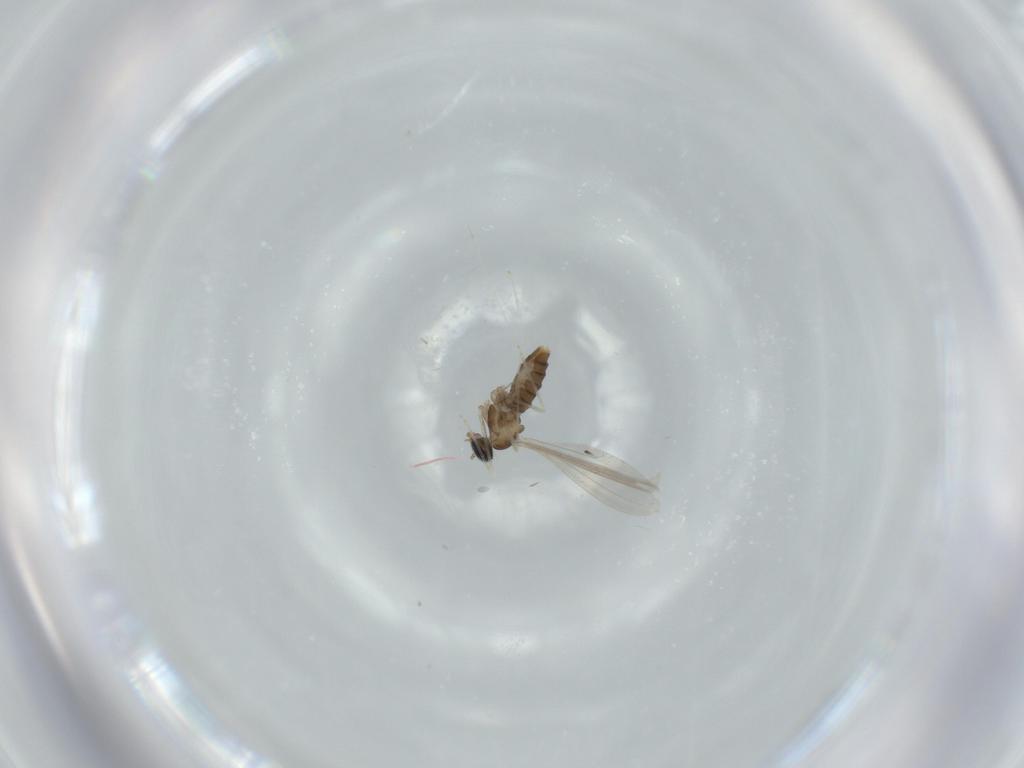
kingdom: Animalia
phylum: Arthropoda
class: Insecta
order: Diptera
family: Cecidomyiidae
